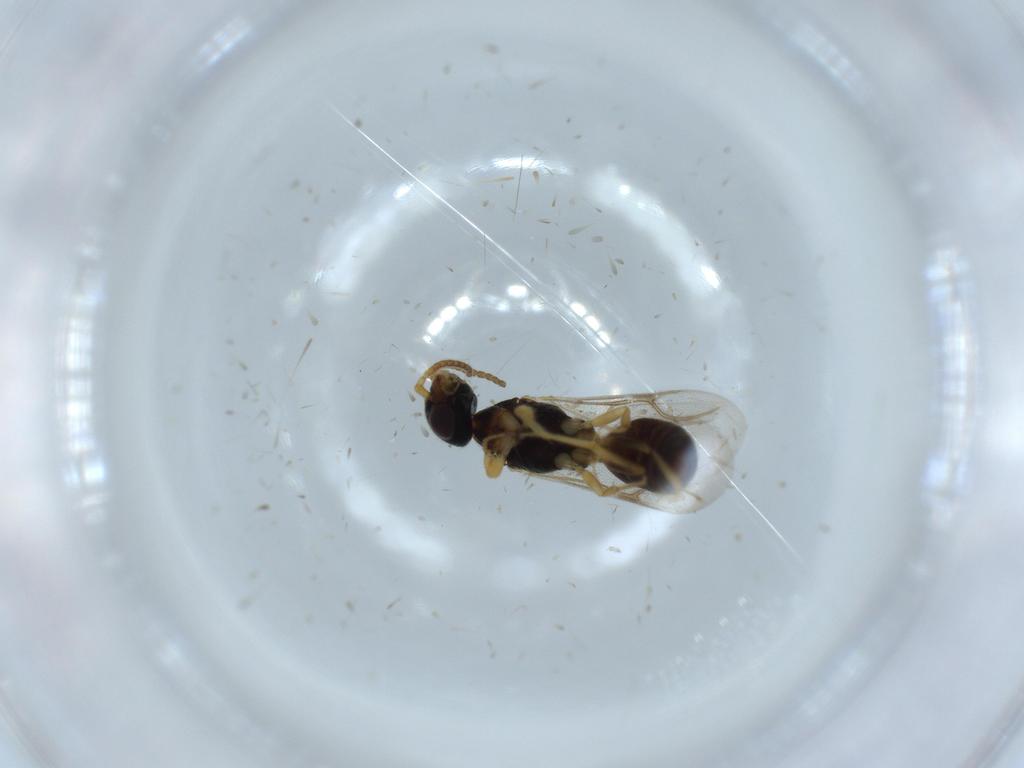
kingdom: Animalia
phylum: Arthropoda
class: Insecta
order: Hymenoptera
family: Bethylidae
